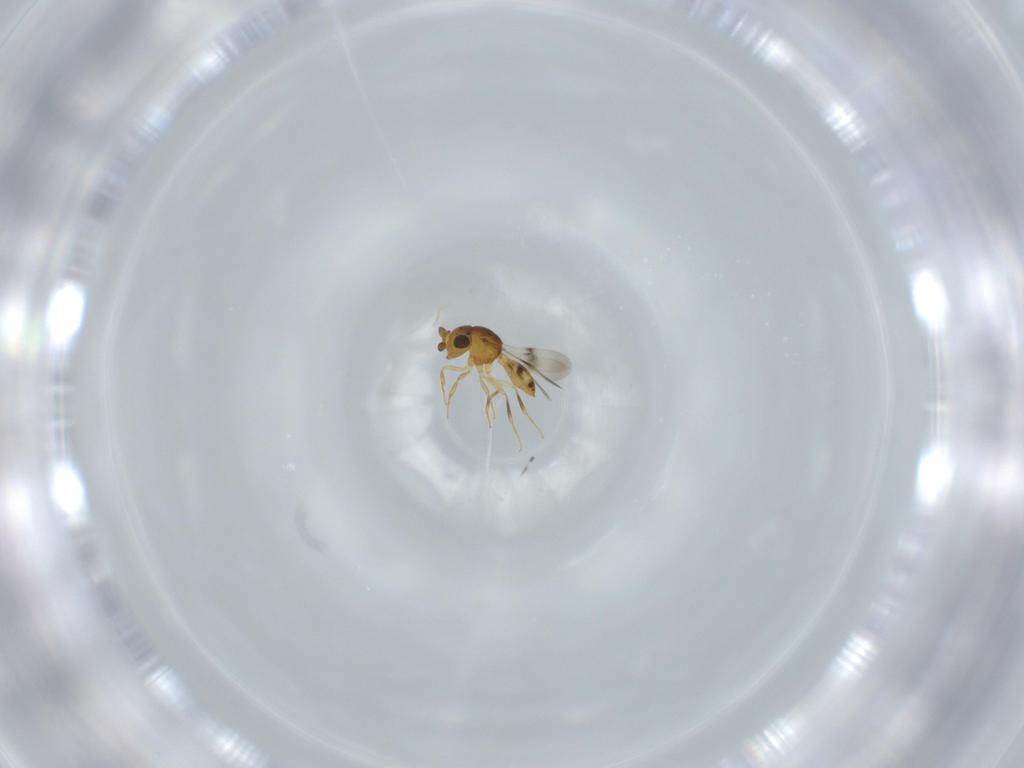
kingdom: Animalia
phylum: Arthropoda
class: Insecta
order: Hymenoptera
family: Scelionidae
